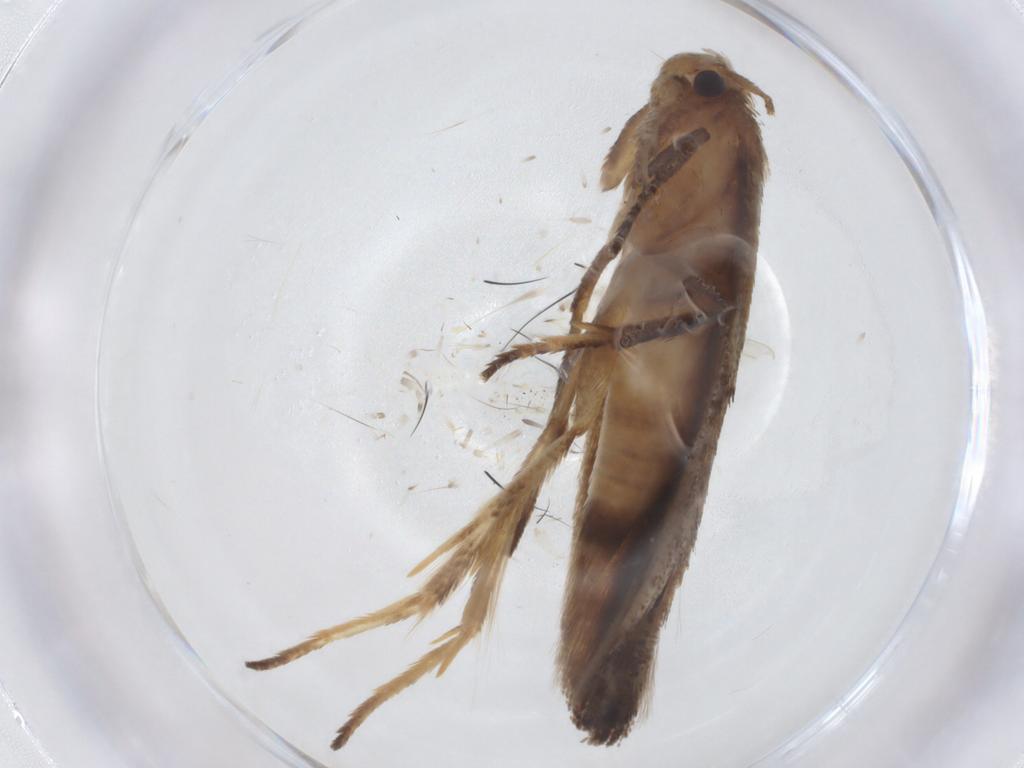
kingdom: Animalia
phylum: Arthropoda
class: Insecta
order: Lepidoptera
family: Momphidae
